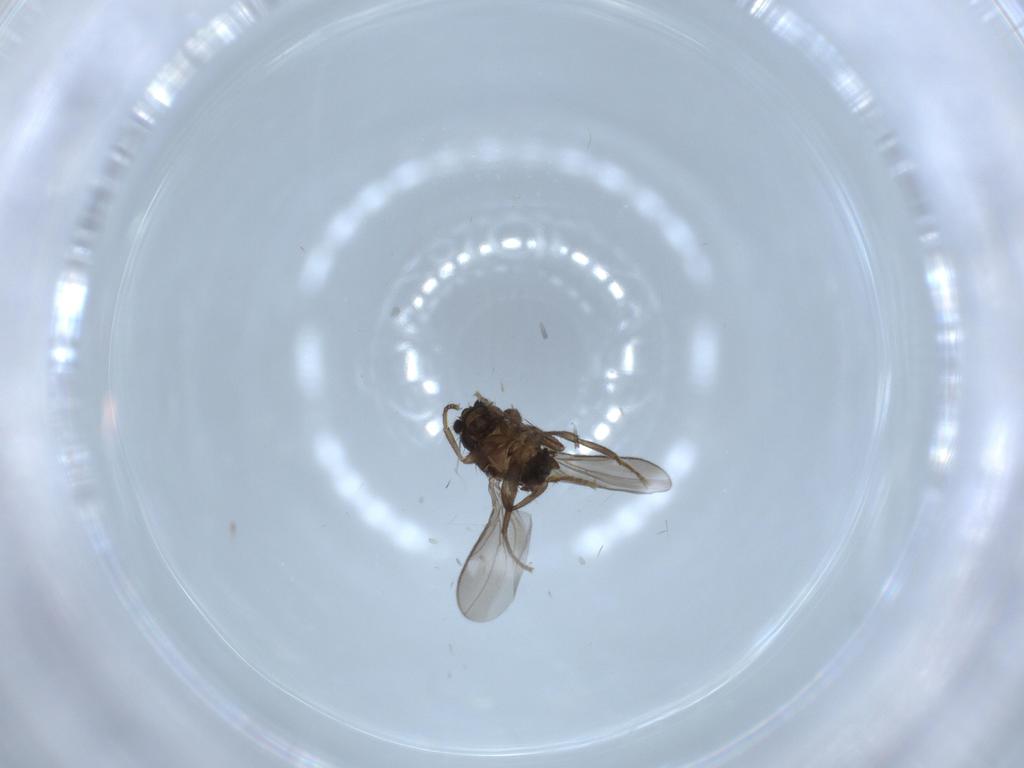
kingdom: Animalia
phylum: Arthropoda
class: Insecta
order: Diptera
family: Sphaeroceridae
